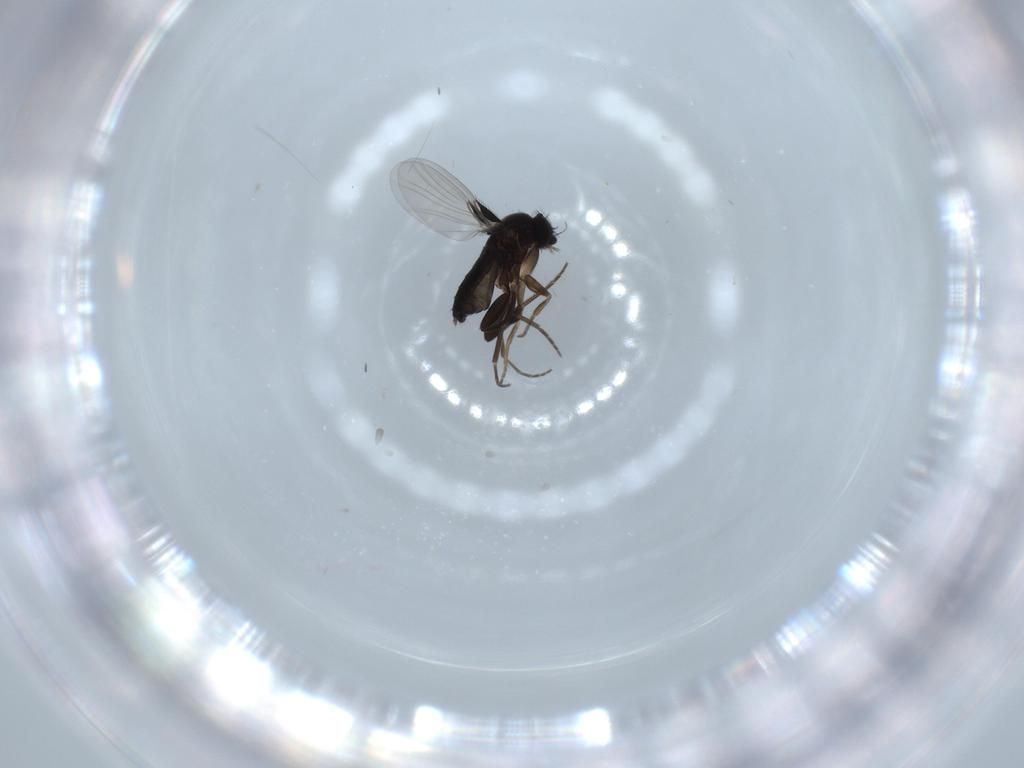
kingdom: Animalia
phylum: Arthropoda
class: Insecta
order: Diptera
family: Phoridae
